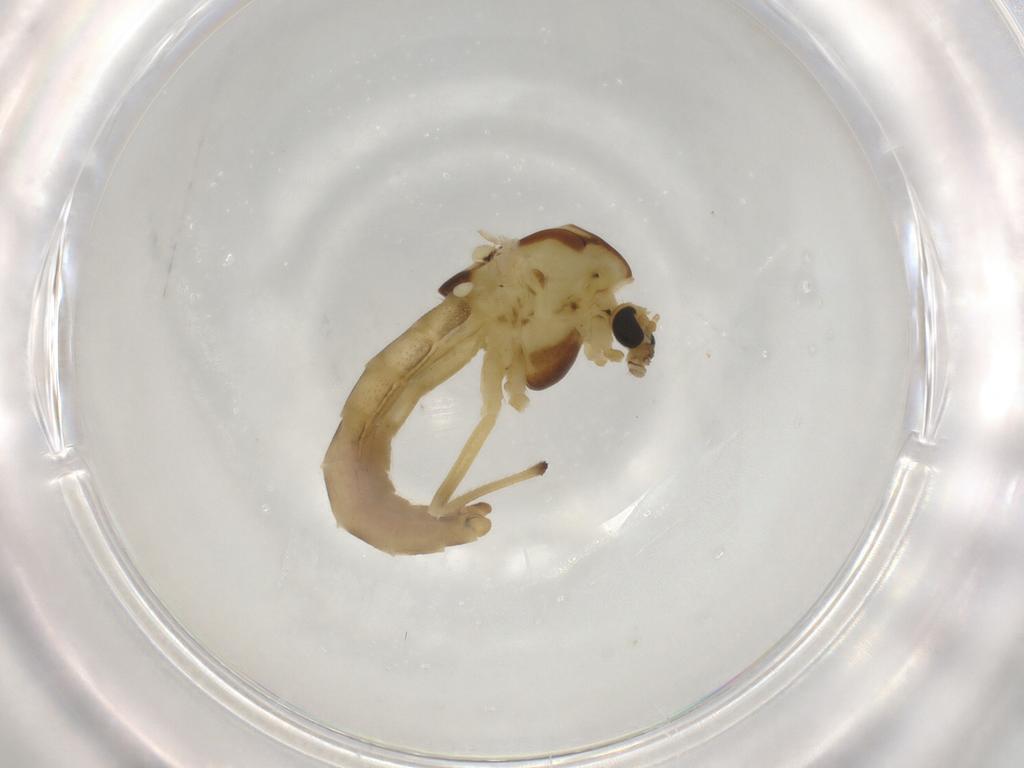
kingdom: Animalia
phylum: Arthropoda
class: Insecta
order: Diptera
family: Chironomidae
